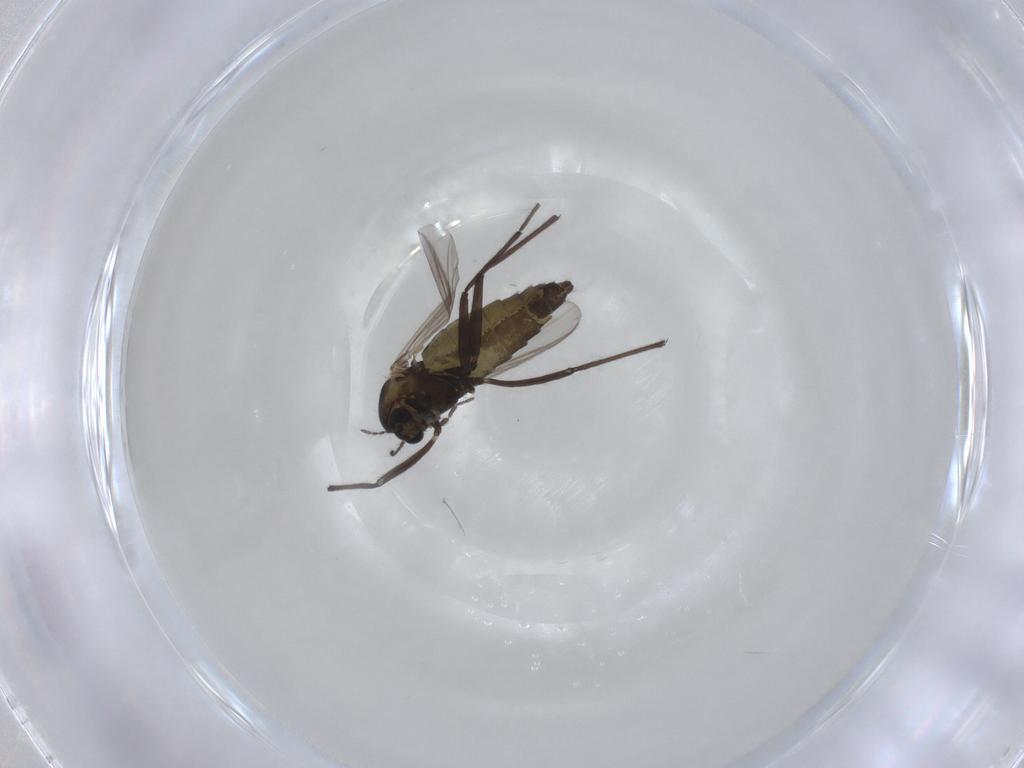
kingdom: Animalia
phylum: Arthropoda
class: Insecta
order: Diptera
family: Chironomidae
